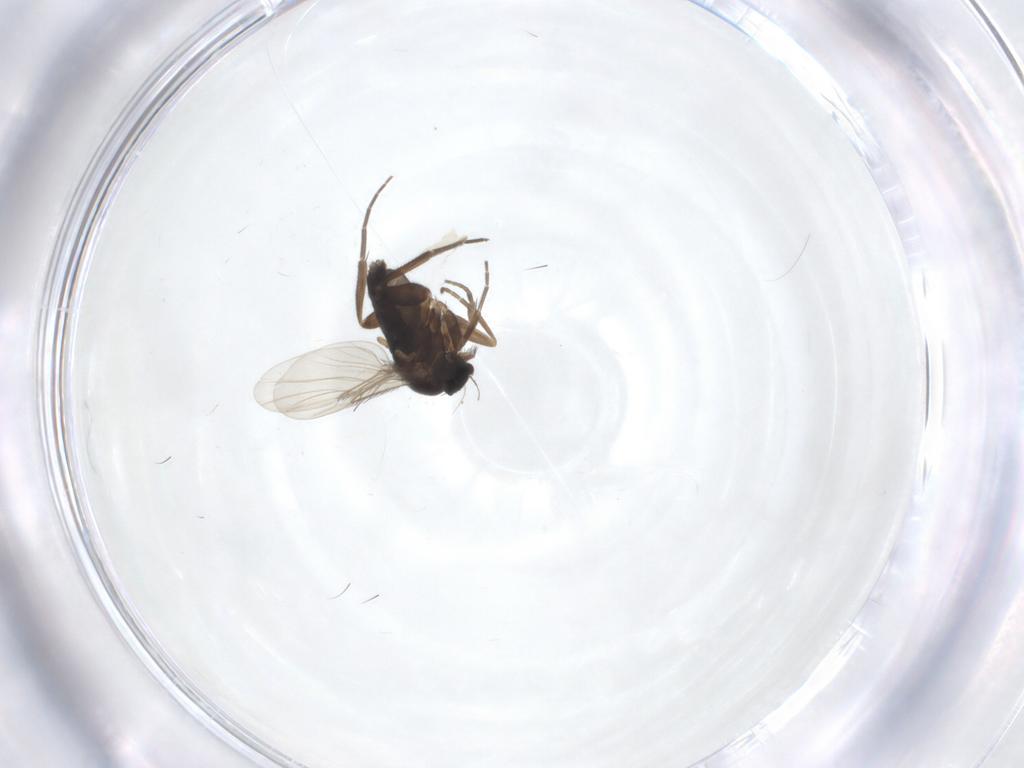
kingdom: Animalia
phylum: Arthropoda
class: Insecta
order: Diptera
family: Phoridae
